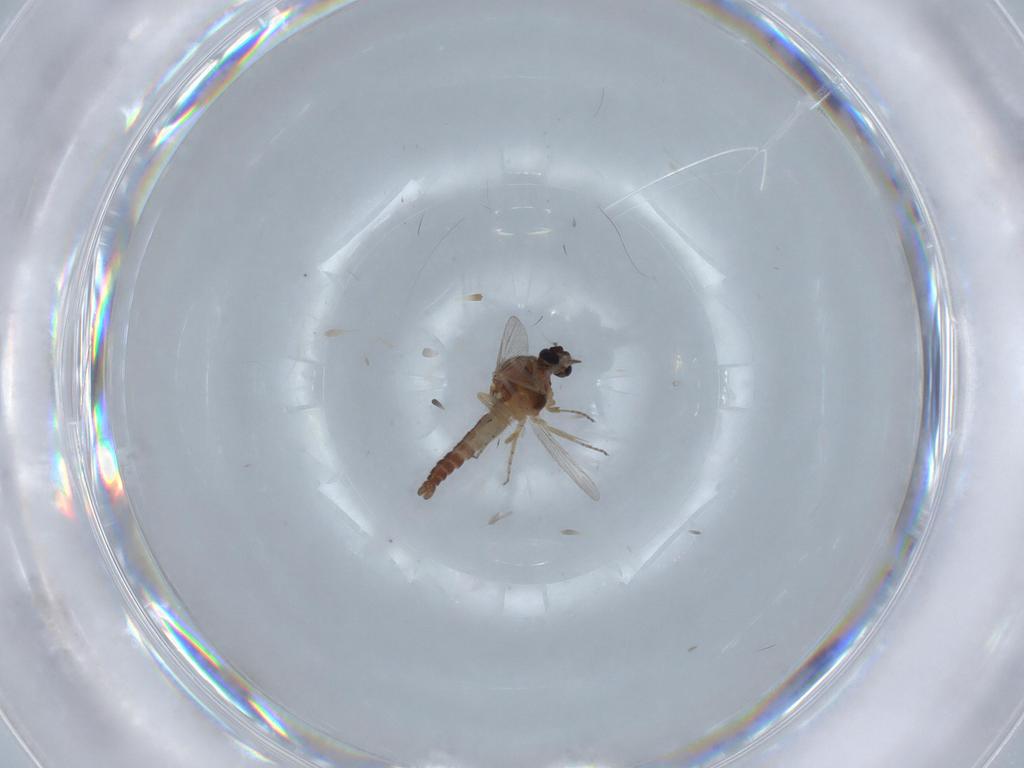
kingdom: Animalia
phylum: Arthropoda
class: Insecta
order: Diptera
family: Ceratopogonidae
